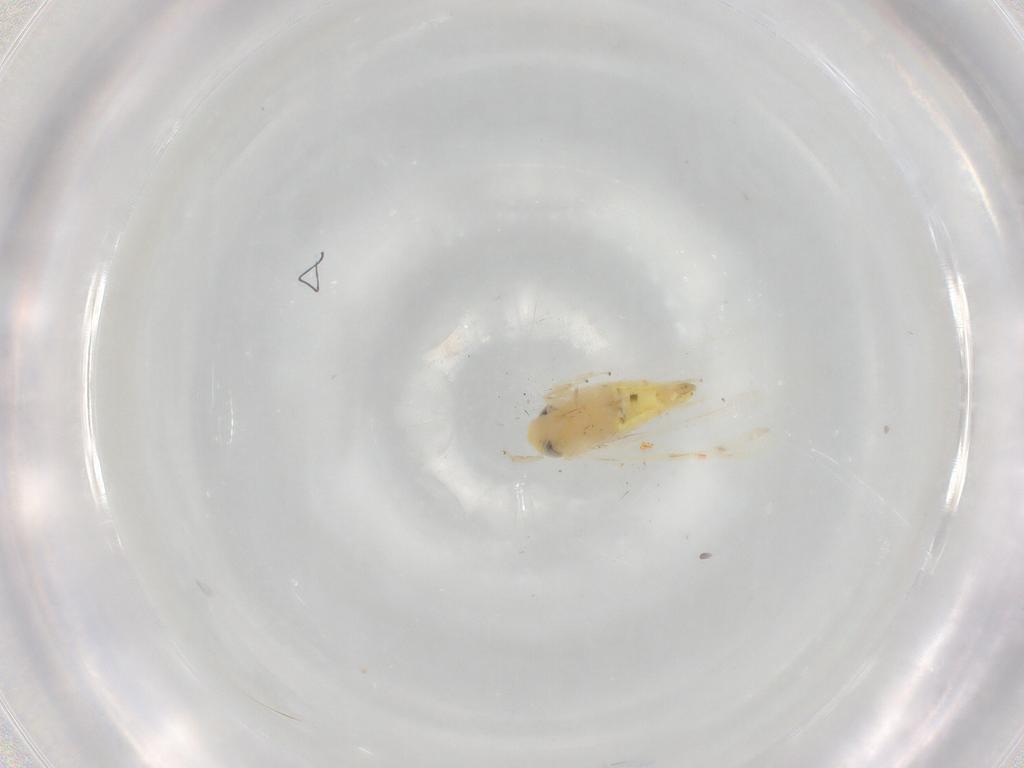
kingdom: Animalia
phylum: Arthropoda
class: Insecta
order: Hemiptera
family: Cicadellidae
